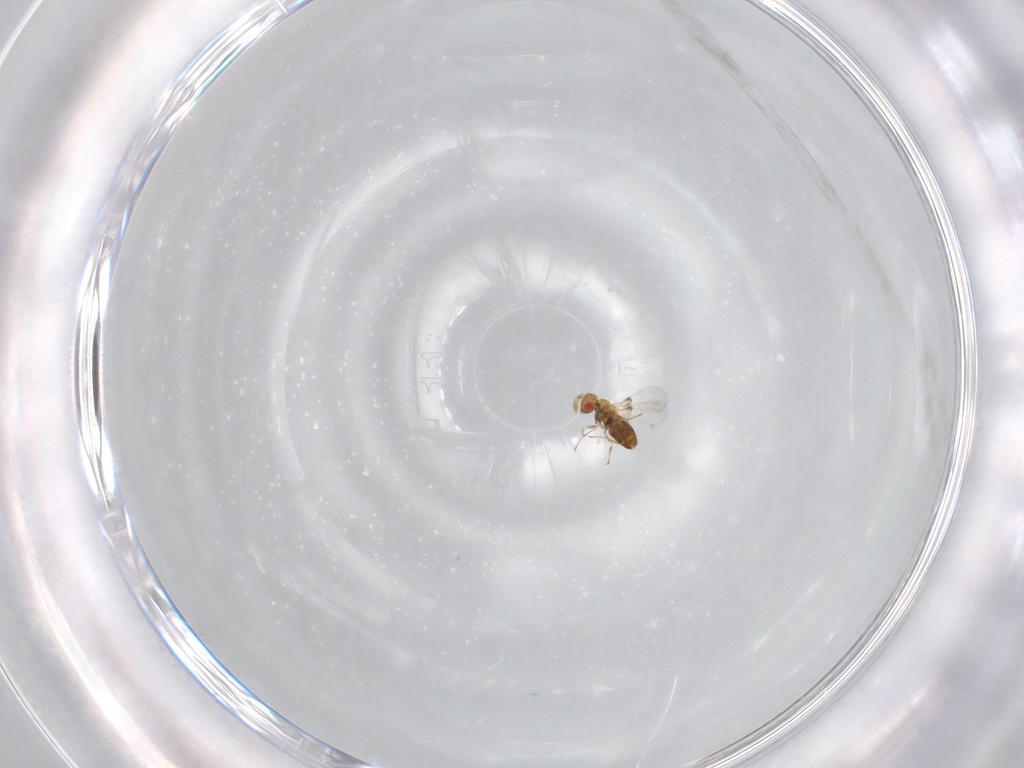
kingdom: Animalia
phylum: Arthropoda
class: Insecta
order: Hymenoptera
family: Trichogrammatidae
